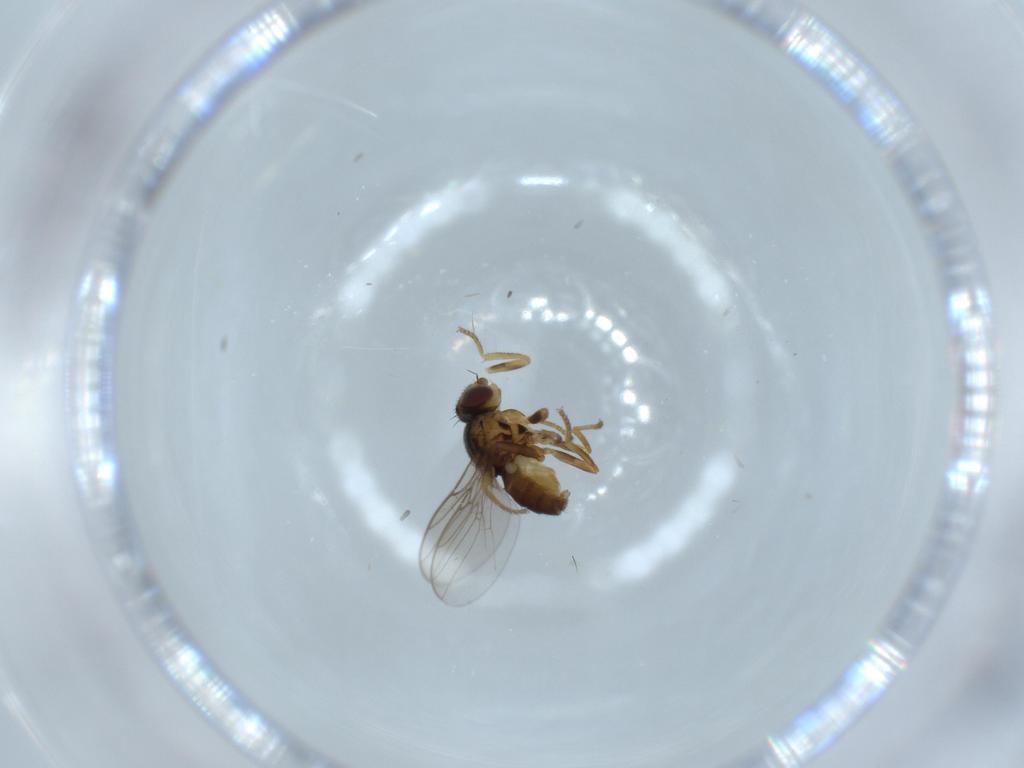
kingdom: Animalia
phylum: Arthropoda
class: Insecta
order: Diptera
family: Chloropidae
